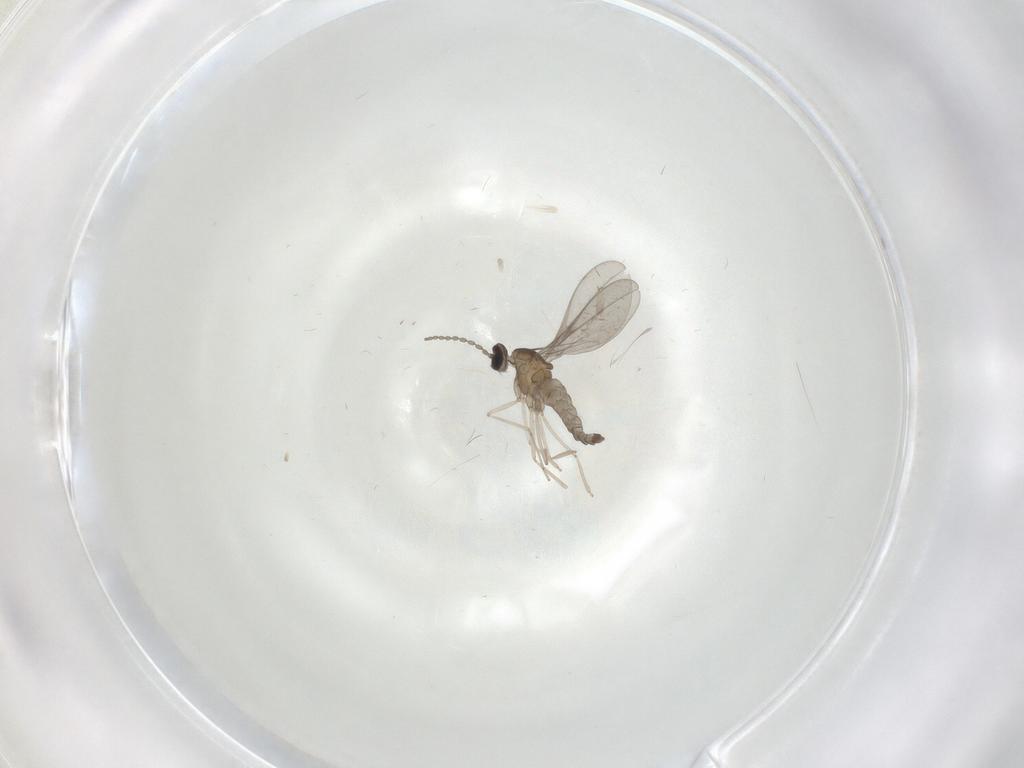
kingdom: Animalia
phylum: Arthropoda
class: Insecta
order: Diptera
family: Cecidomyiidae
